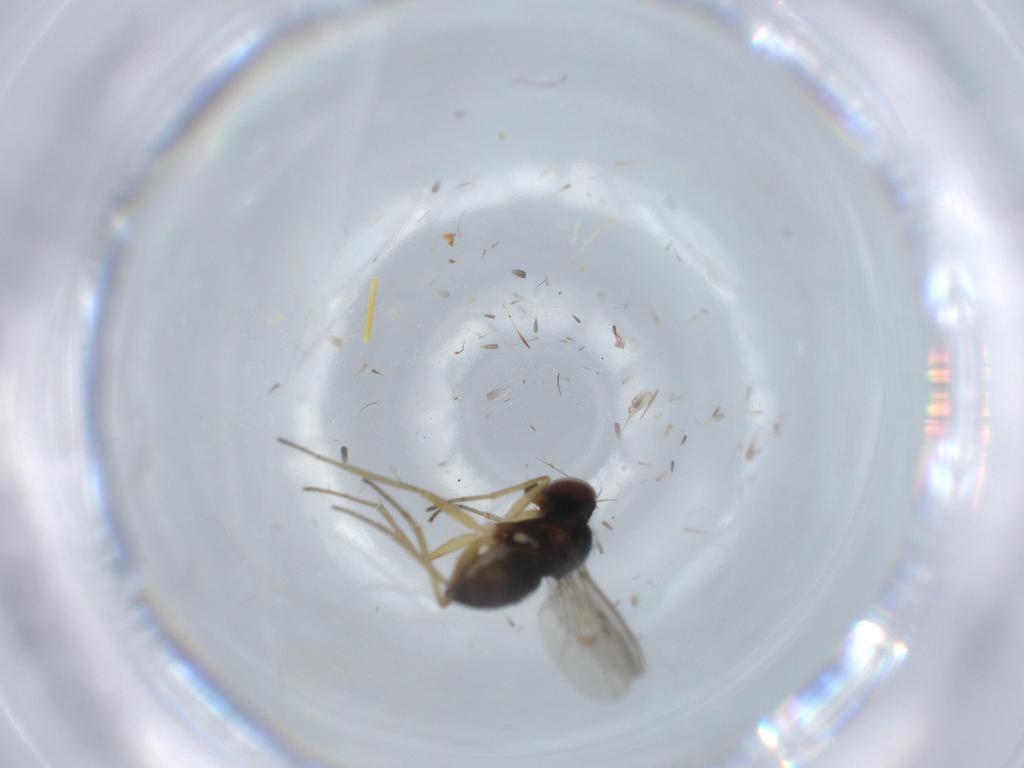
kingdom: Animalia
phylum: Arthropoda
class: Insecta
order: Diptera
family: Dolichopodidae
